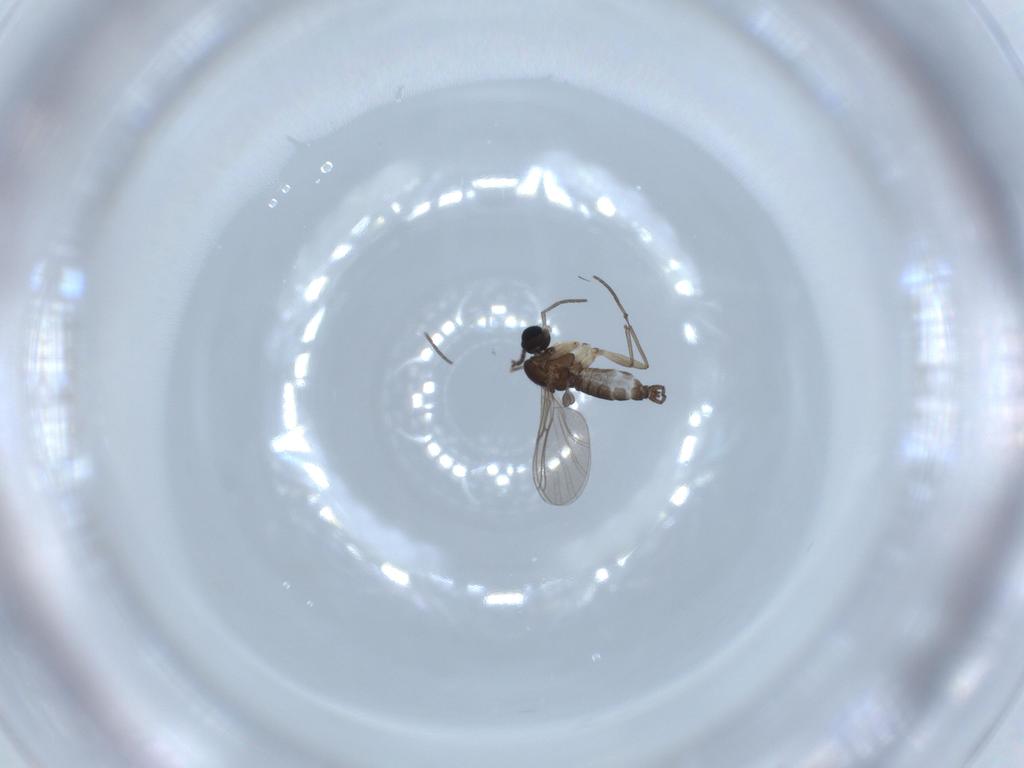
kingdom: Animalia
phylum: Arthropoda
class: Insecta
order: Diptera
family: Sciaridae
